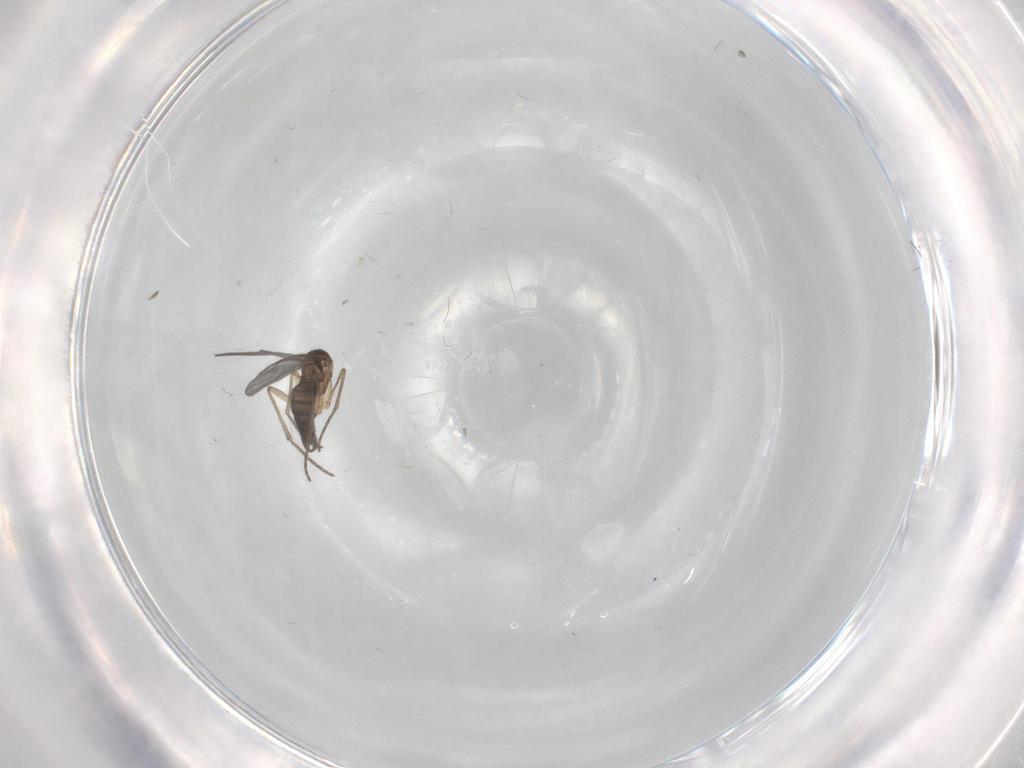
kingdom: Animalia
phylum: Arthropoda
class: Insecta
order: Diptera
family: Sciaridae
